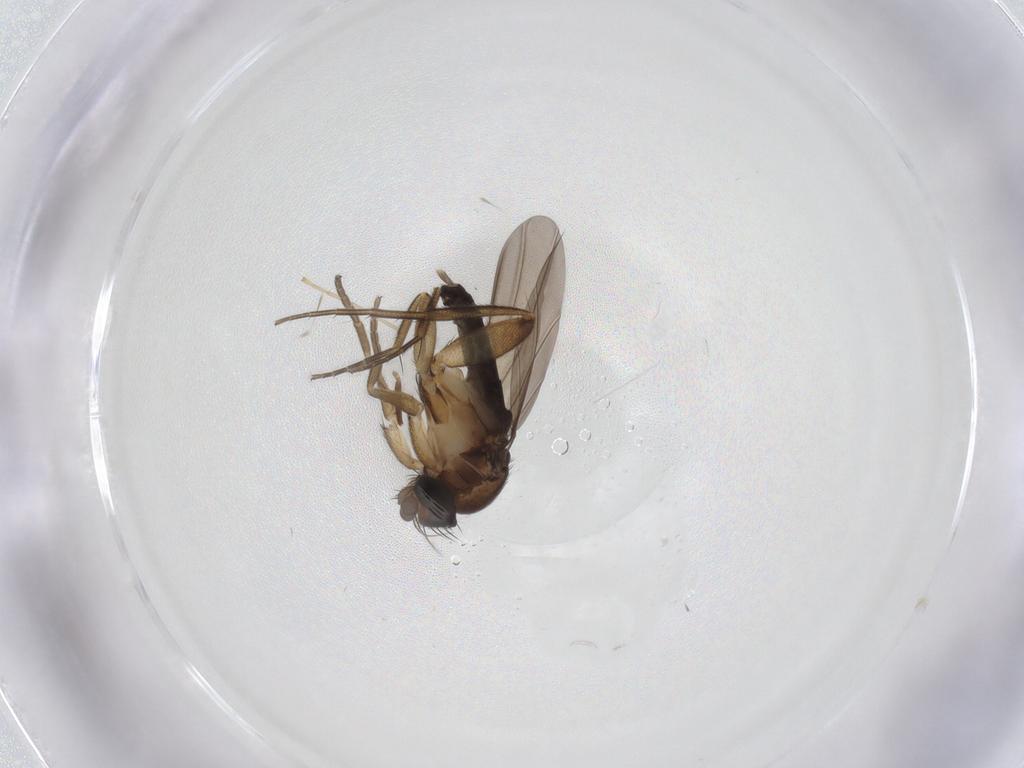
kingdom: Animalia
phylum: Arthropoda
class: Insecta
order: Diptera
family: Phoridae
